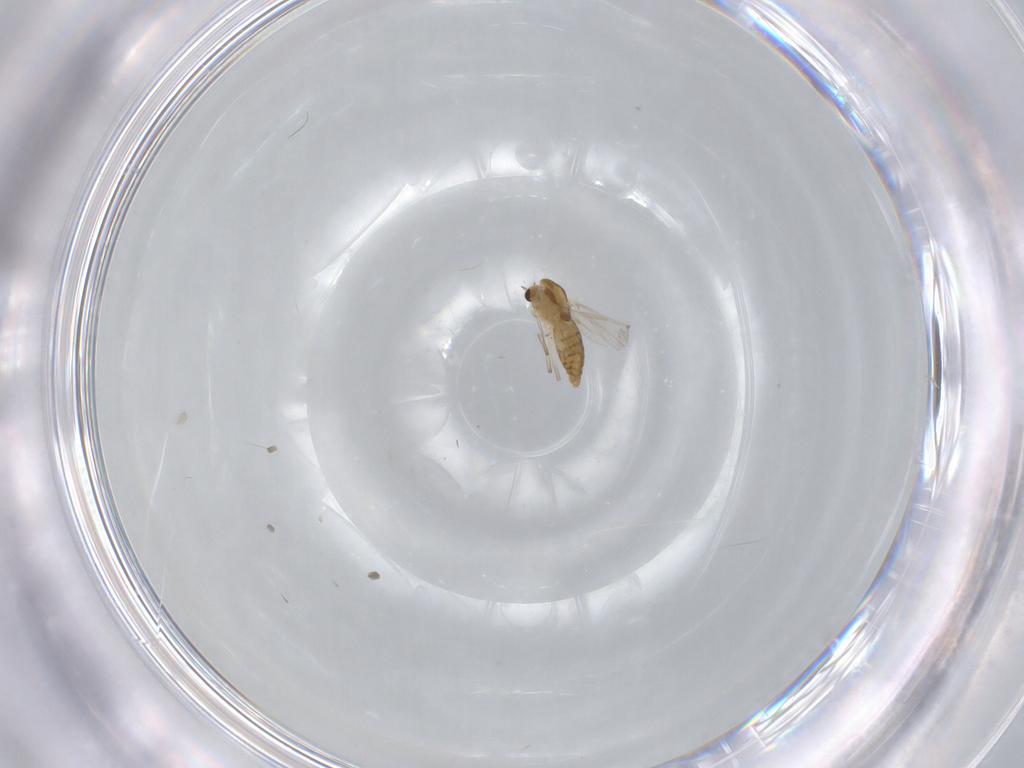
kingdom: Animalia
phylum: Arthropoda
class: Insecta
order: Diptera
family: Chironomidae
